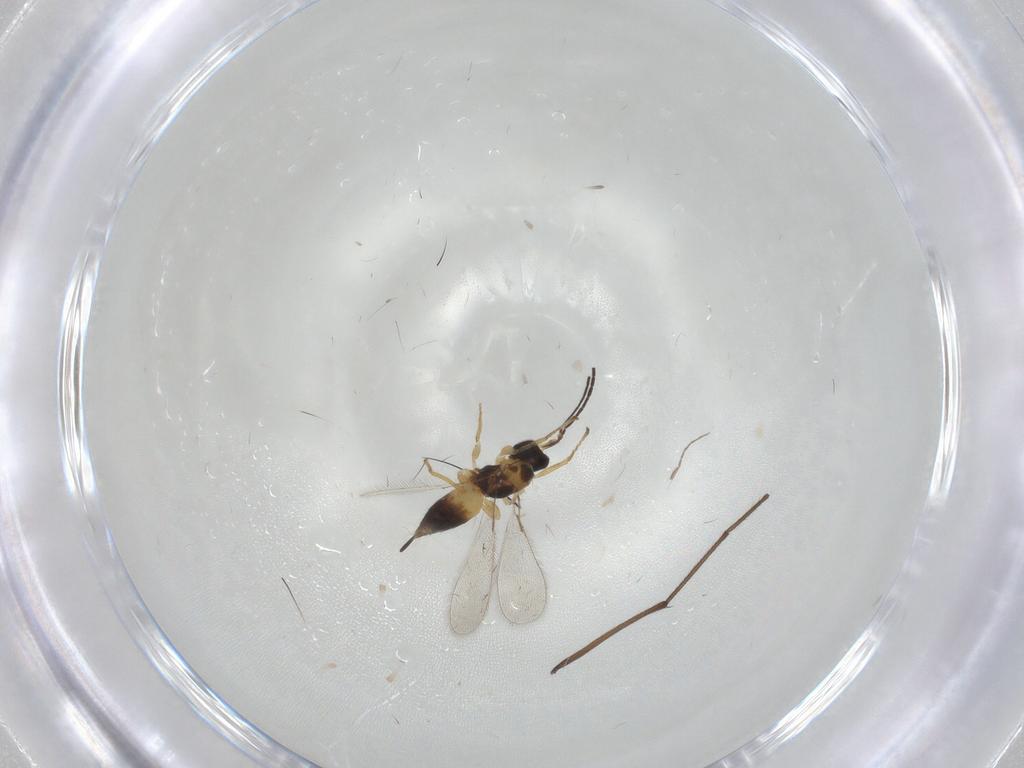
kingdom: Animalia
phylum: Arthropoda
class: Insecta
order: Hymenoptera
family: Mymaridae
